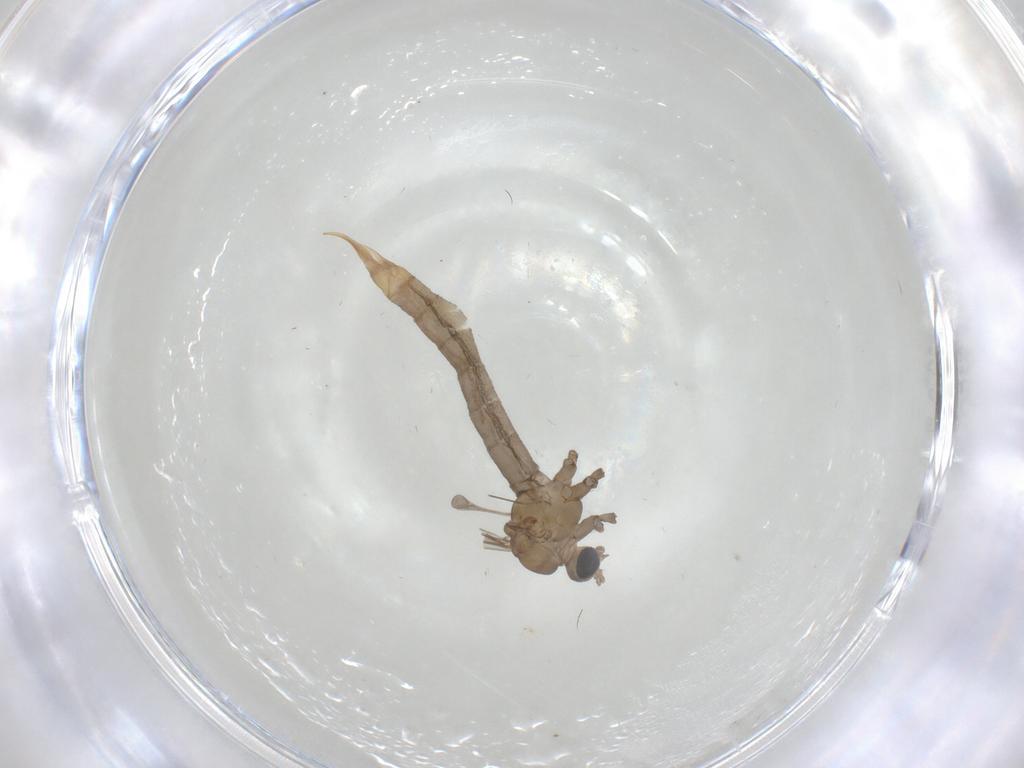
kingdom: Animalia
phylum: Arthropoda
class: Insecta
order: Diptera
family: Limoniidae
